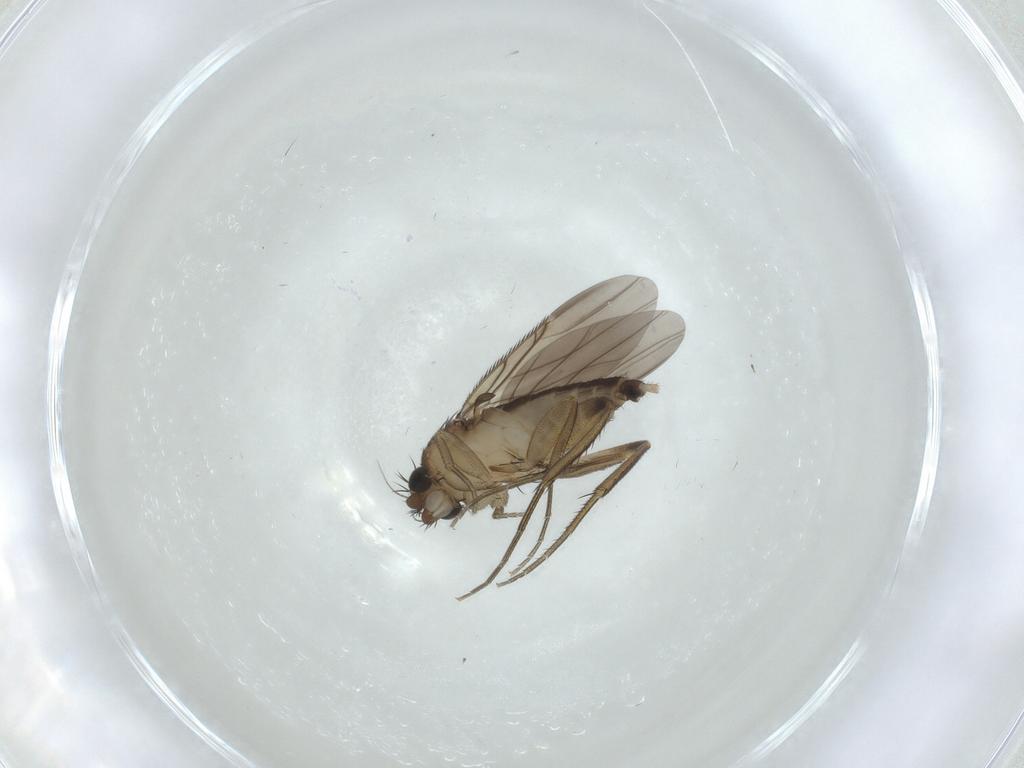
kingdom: Animalia
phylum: Arthropoda
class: Insecta
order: Diptera
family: Phoridae
